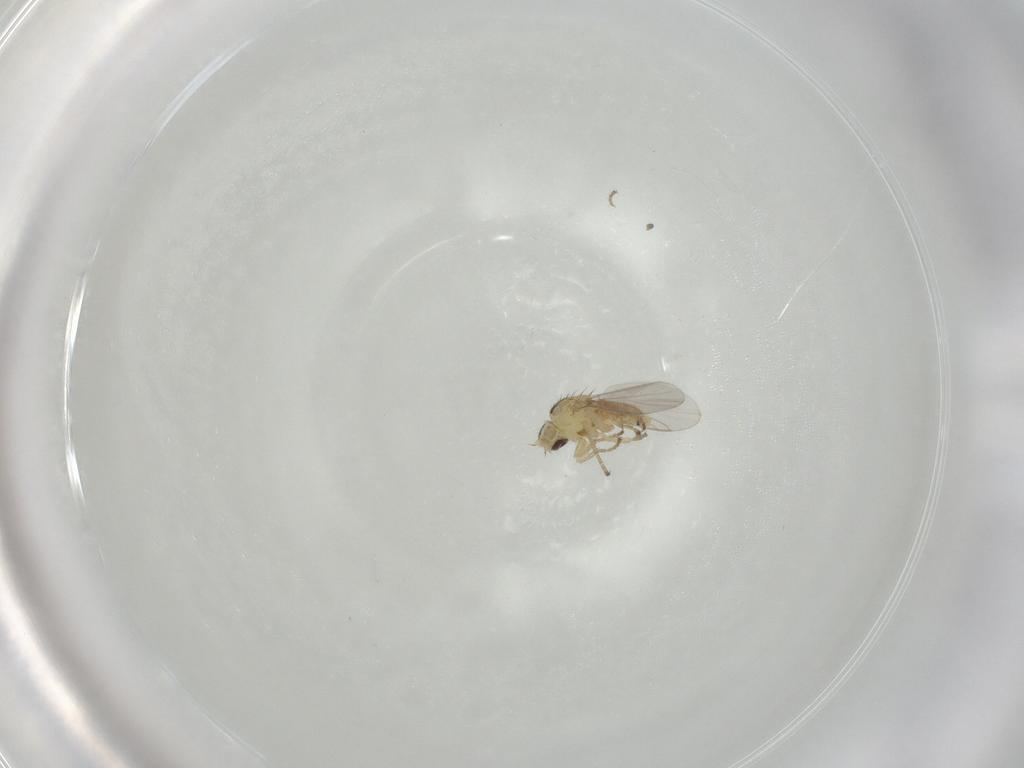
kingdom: Animalia
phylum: Arthropoda
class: Insecta
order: Diptera
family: Agromyzidae
